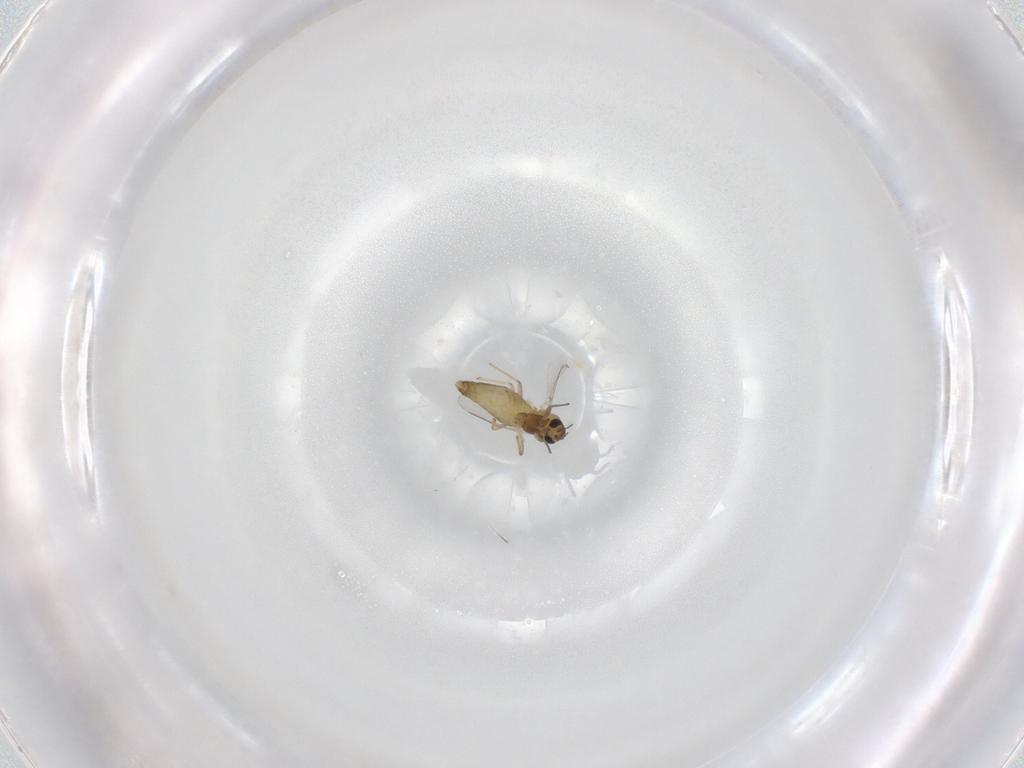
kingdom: Animalia
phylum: Arthropoda
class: Insecta
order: Diptera
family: Chironomidae
